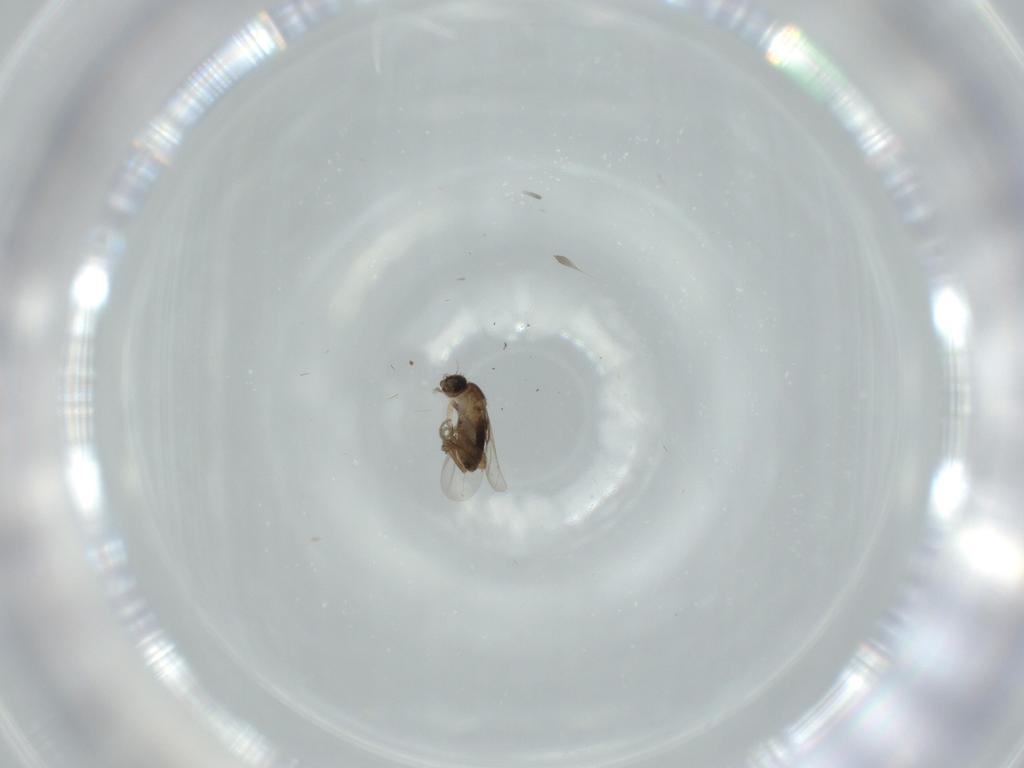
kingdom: Animalia
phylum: Arthropoda
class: Insecta
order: Diptera
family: Phoridae
